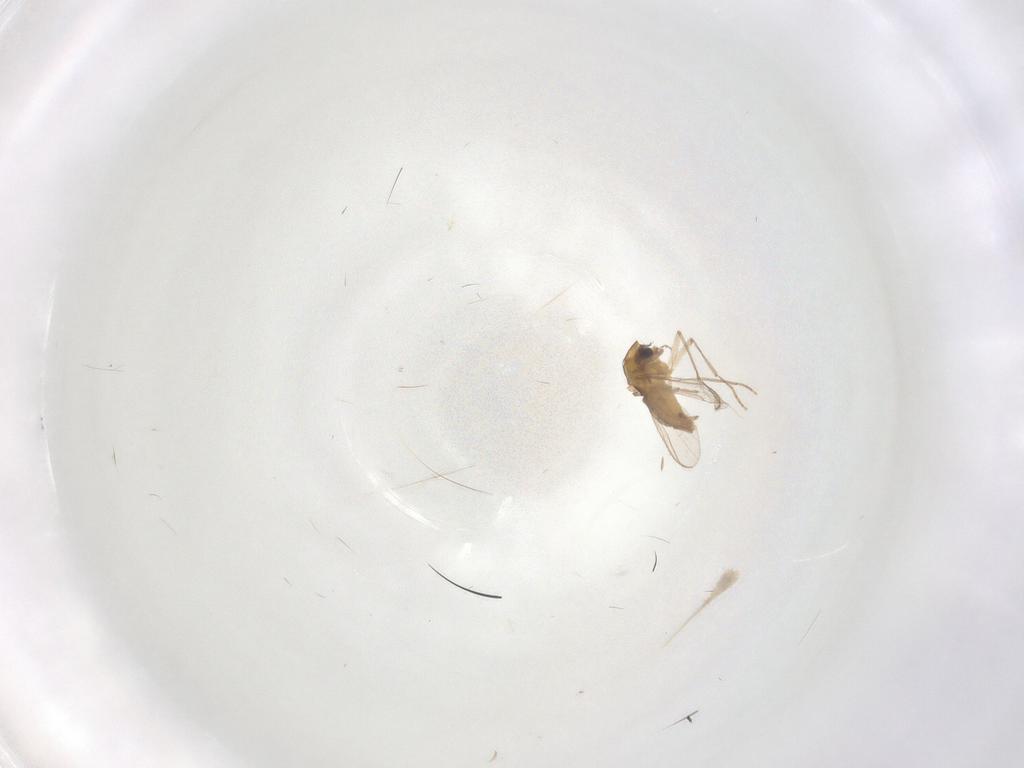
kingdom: Animalia
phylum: Arthropoda
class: Insecta
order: Diptera
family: Chironomidae
